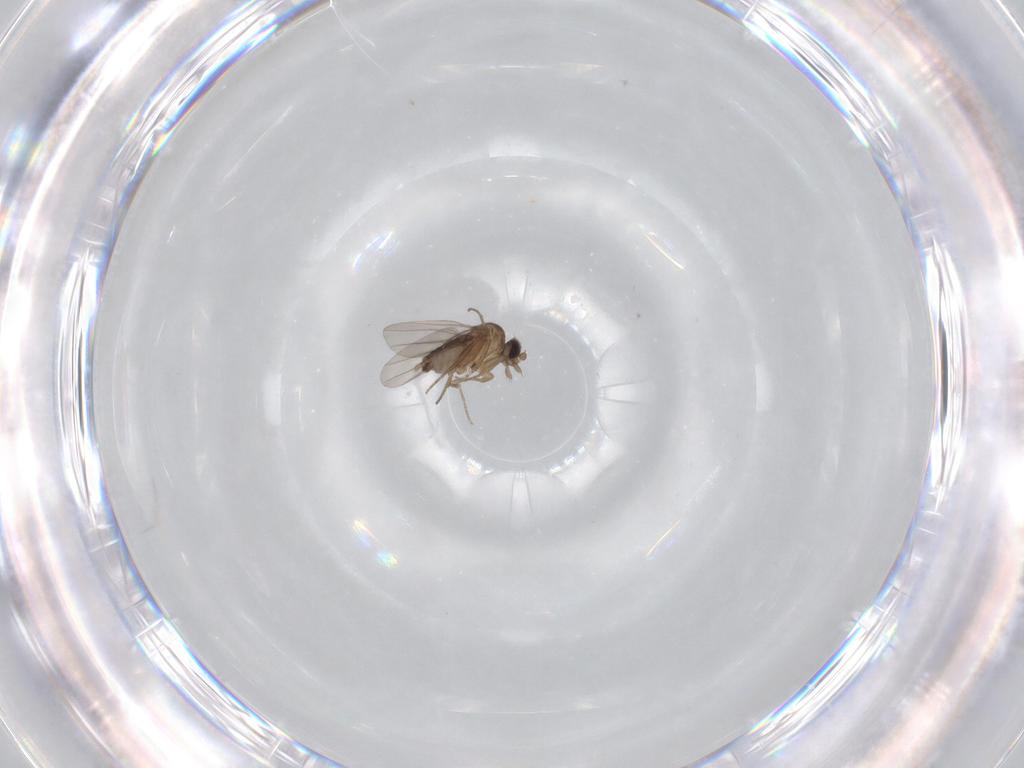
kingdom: Animalia
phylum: Arthropoda
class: Insecta
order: Diptera
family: Phoridae
